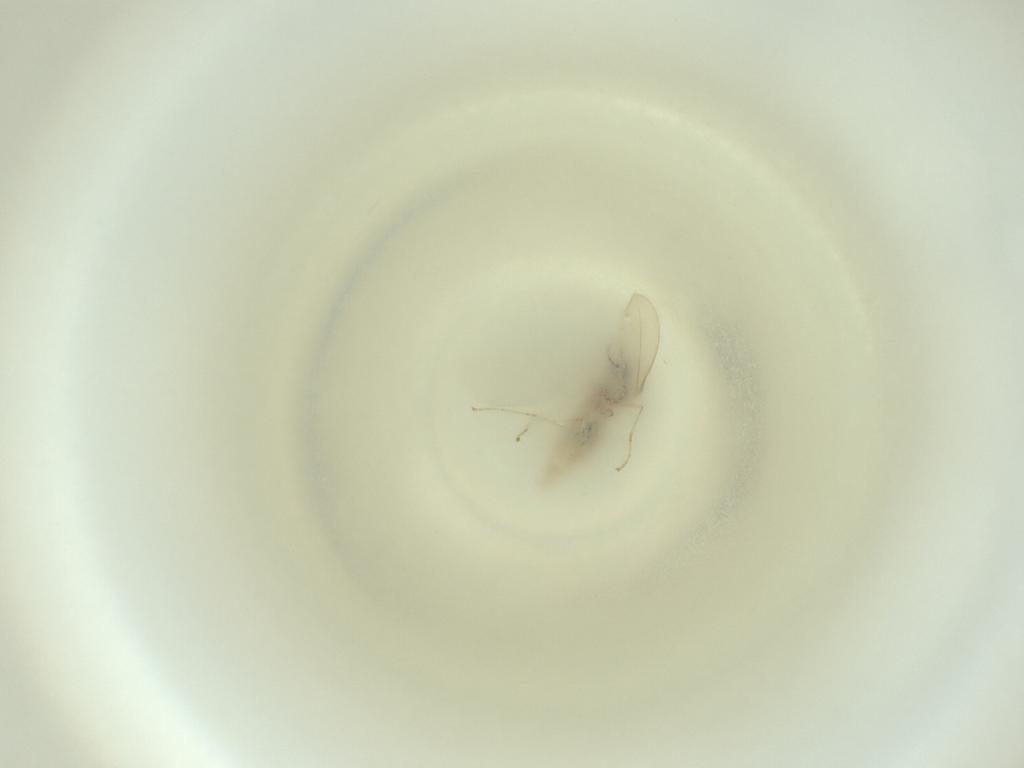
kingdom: Animalia
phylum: Arthropoda
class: Insecta
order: Diptera
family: Cecidomyiidae
